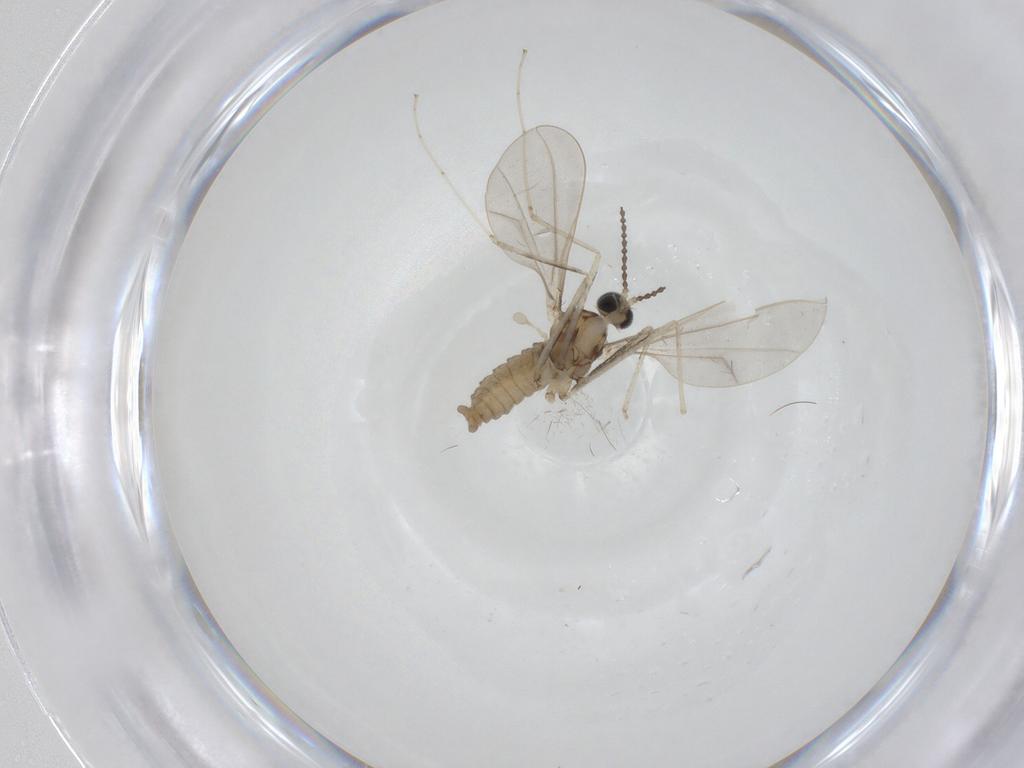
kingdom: Animalia
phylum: Arthropoda
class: Insecta
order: Diptera
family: Cecidomyiidae
